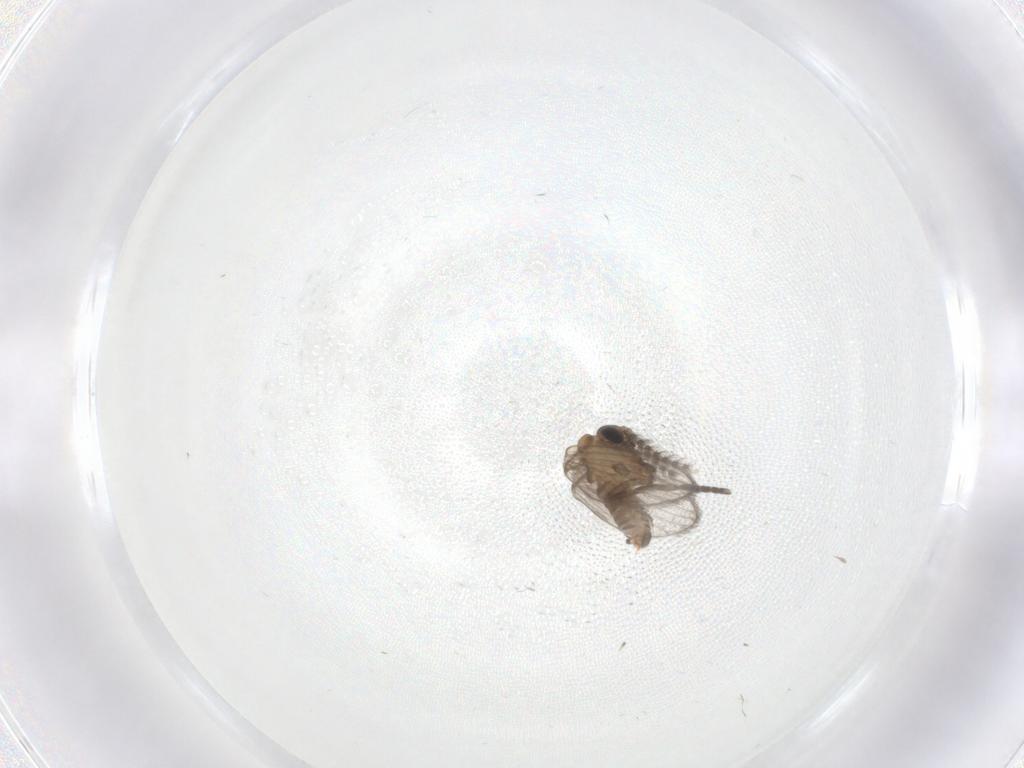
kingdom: Animalia
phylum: Arthropoda
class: Insecta
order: Diptera
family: Psychodidae
